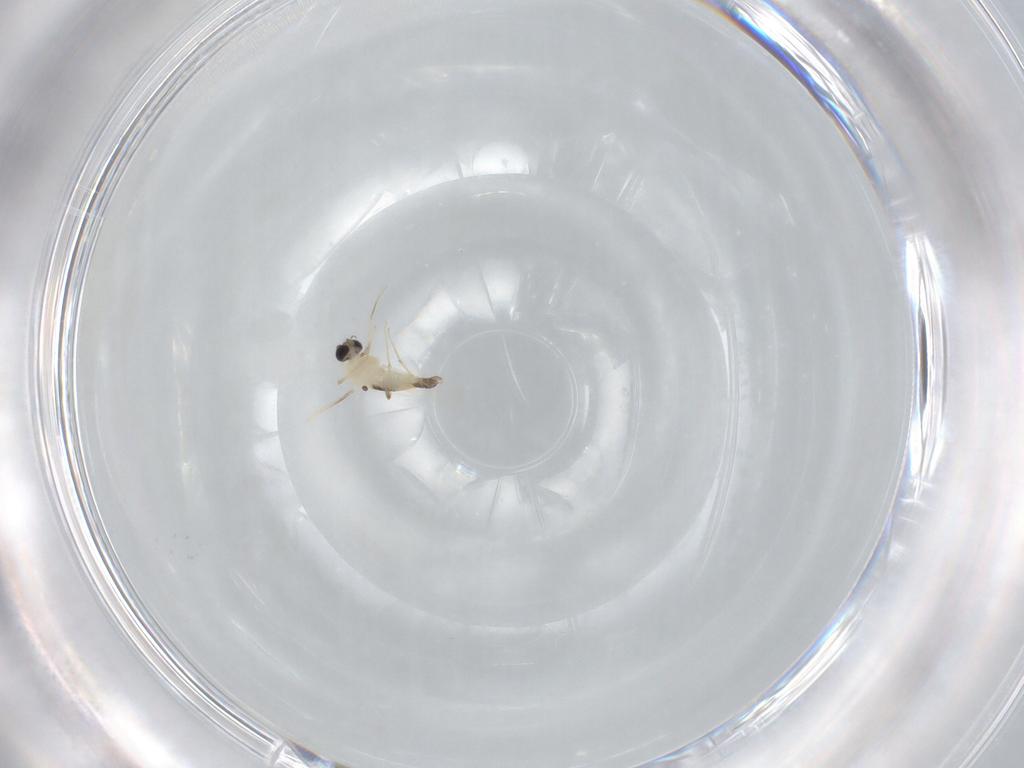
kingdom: Animalia
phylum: Arthropoda
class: Insecta
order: Diptera
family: Chironomidae
